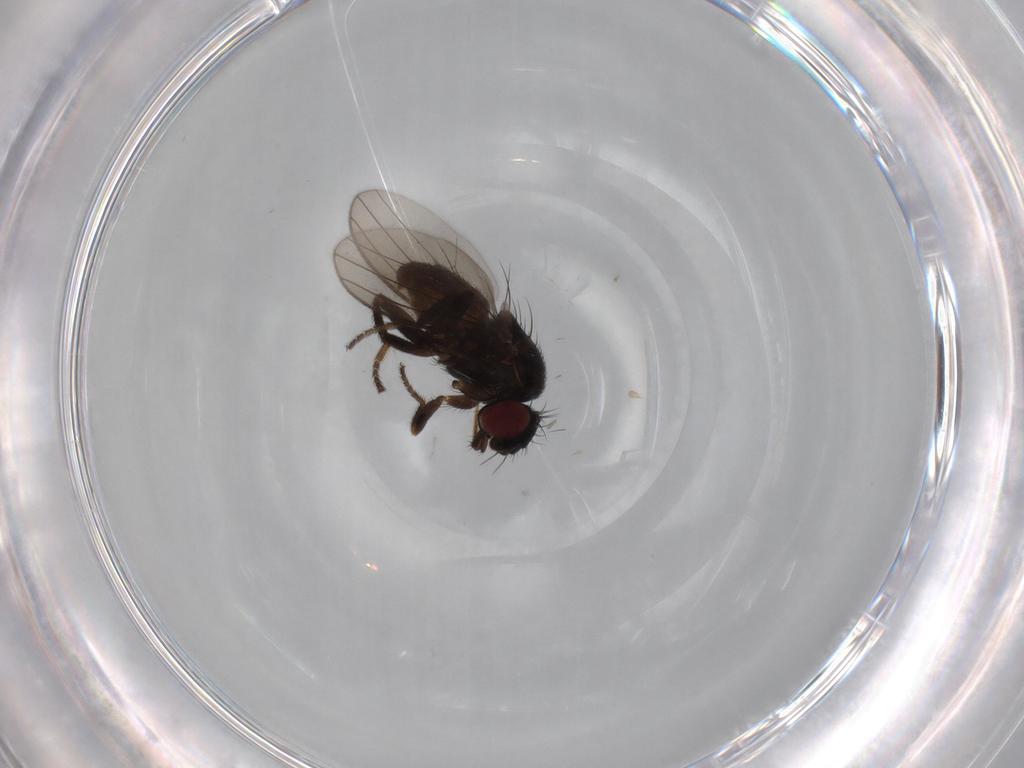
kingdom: Animalia
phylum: Arthropoda
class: Insecta
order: Diptera
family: Milichiidae
